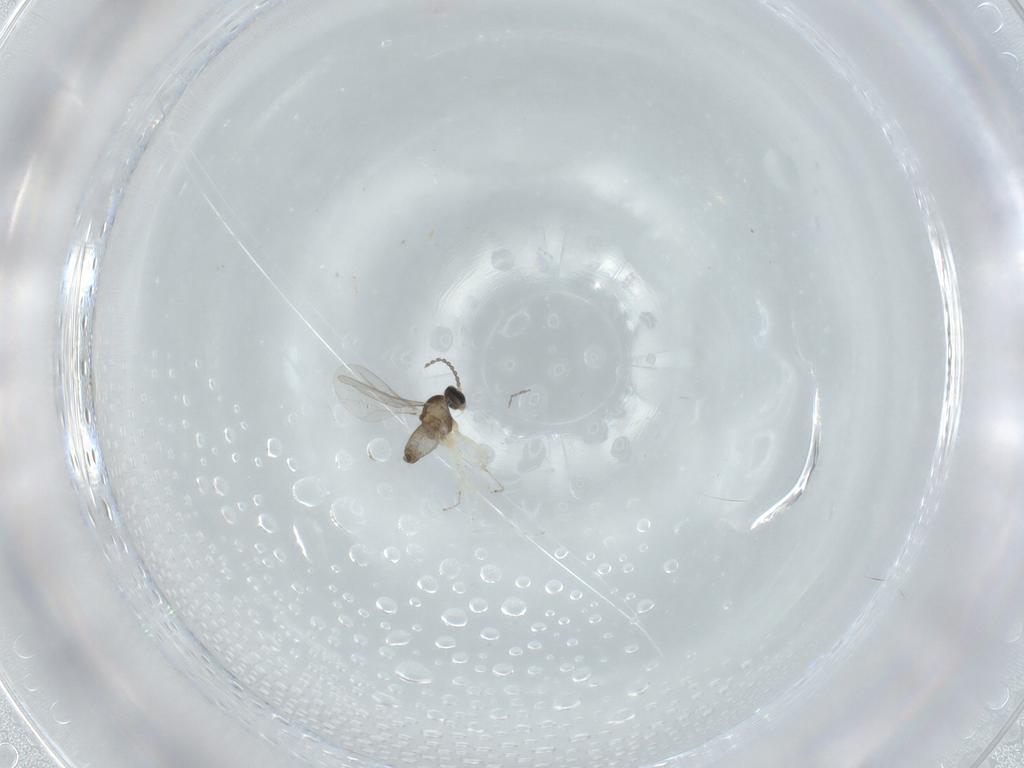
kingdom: Animalia
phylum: Arthropoda
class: Insecta
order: Diptera
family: Cecidomyiidae
